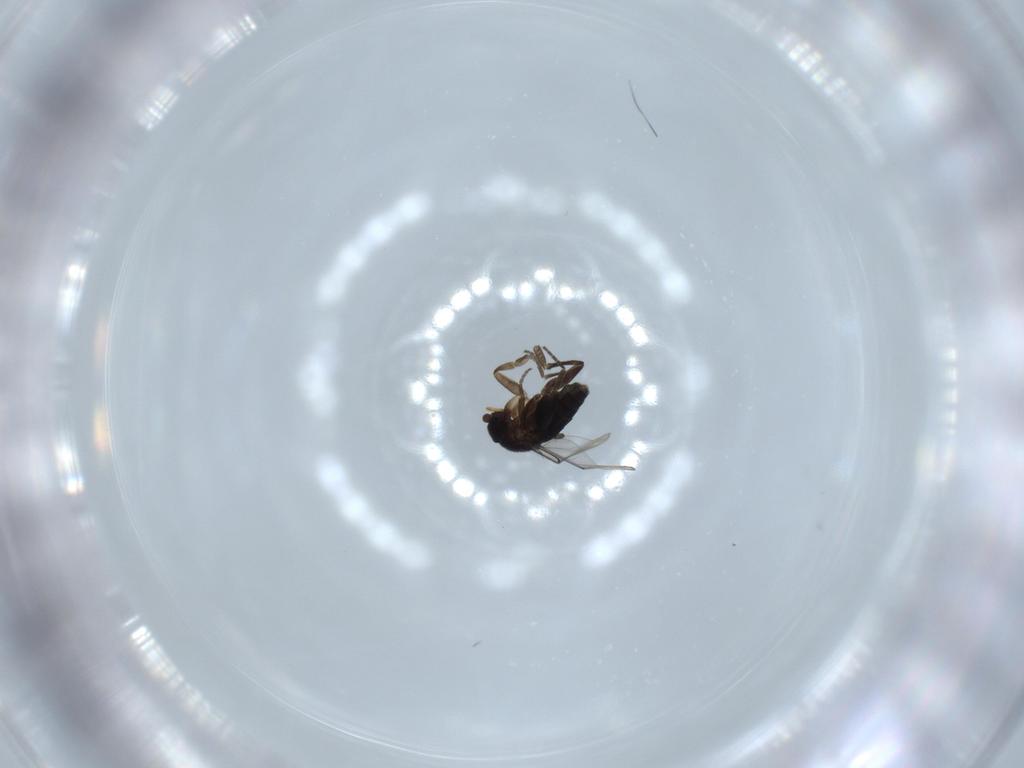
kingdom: Animalia
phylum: Arthropoda
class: Insecta
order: Diptera
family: Phoridae
